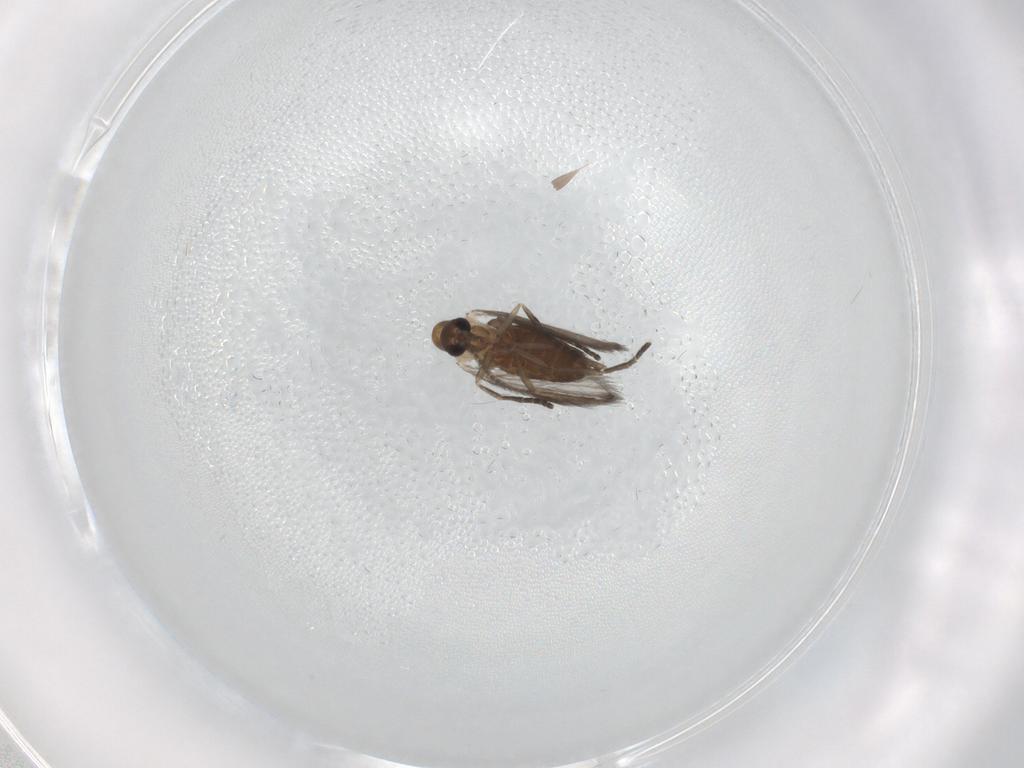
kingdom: Animalia
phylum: Arthropoda
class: Insecta
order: Diptera
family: Psychodidae
